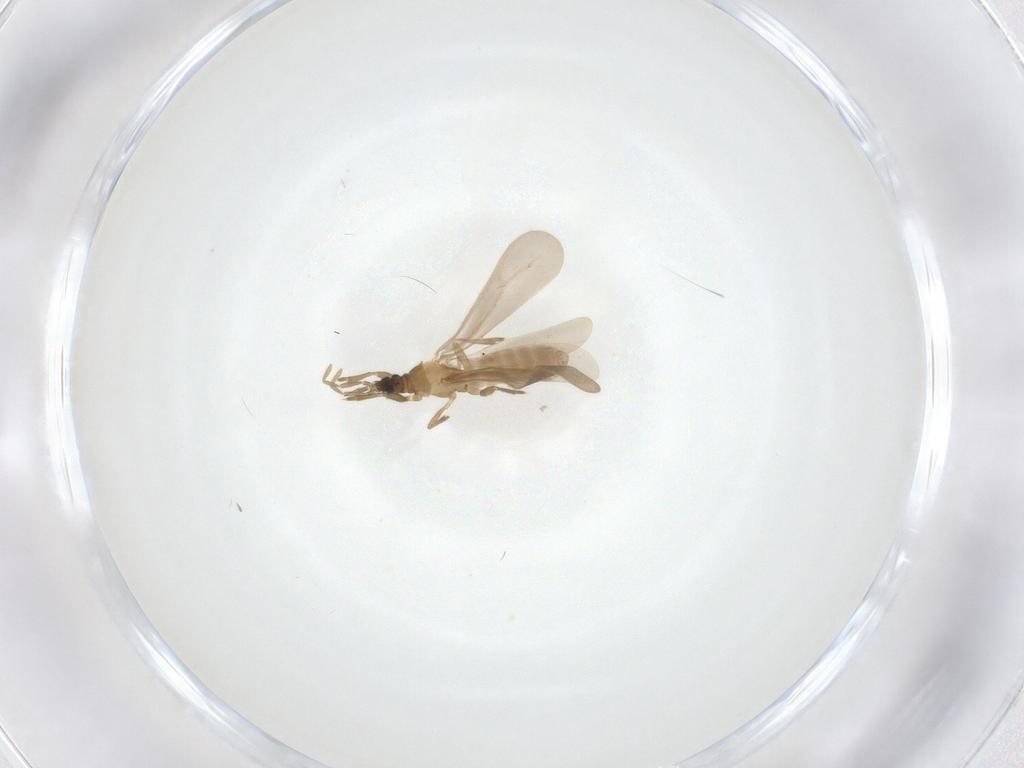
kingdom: Animalia
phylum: Arthropoda
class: Insecta
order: Hemiptera
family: Enicocephalidae
